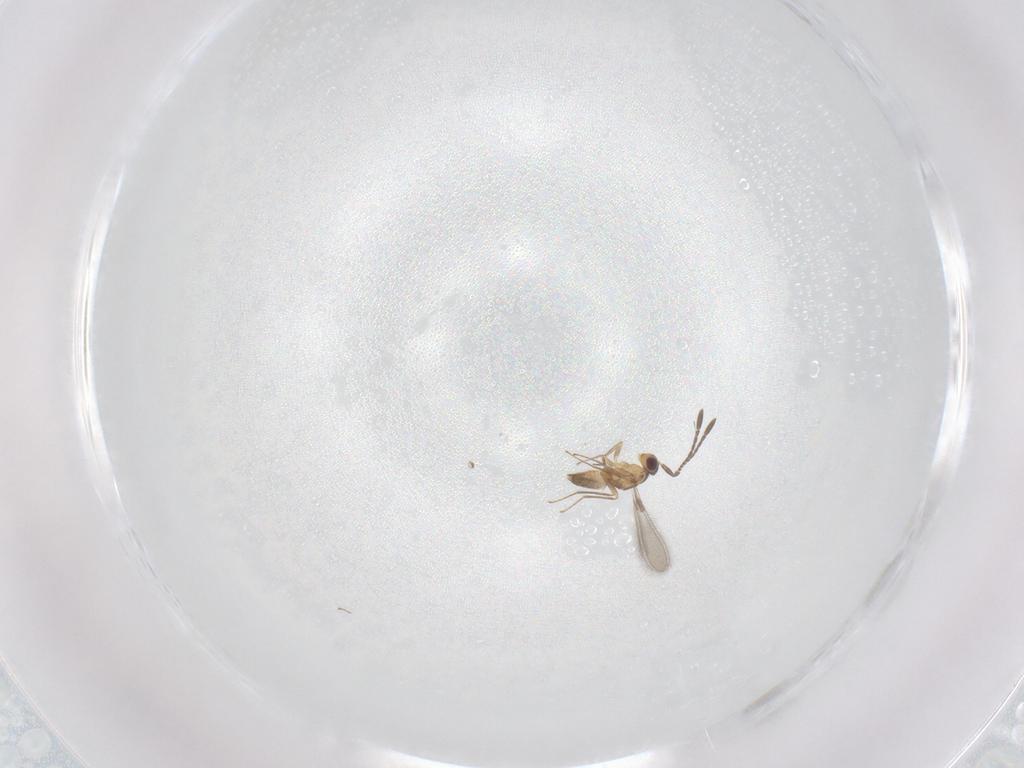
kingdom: Animalia
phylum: Arthropoda
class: Insecta
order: Hymenoptera
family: Mymaridae
